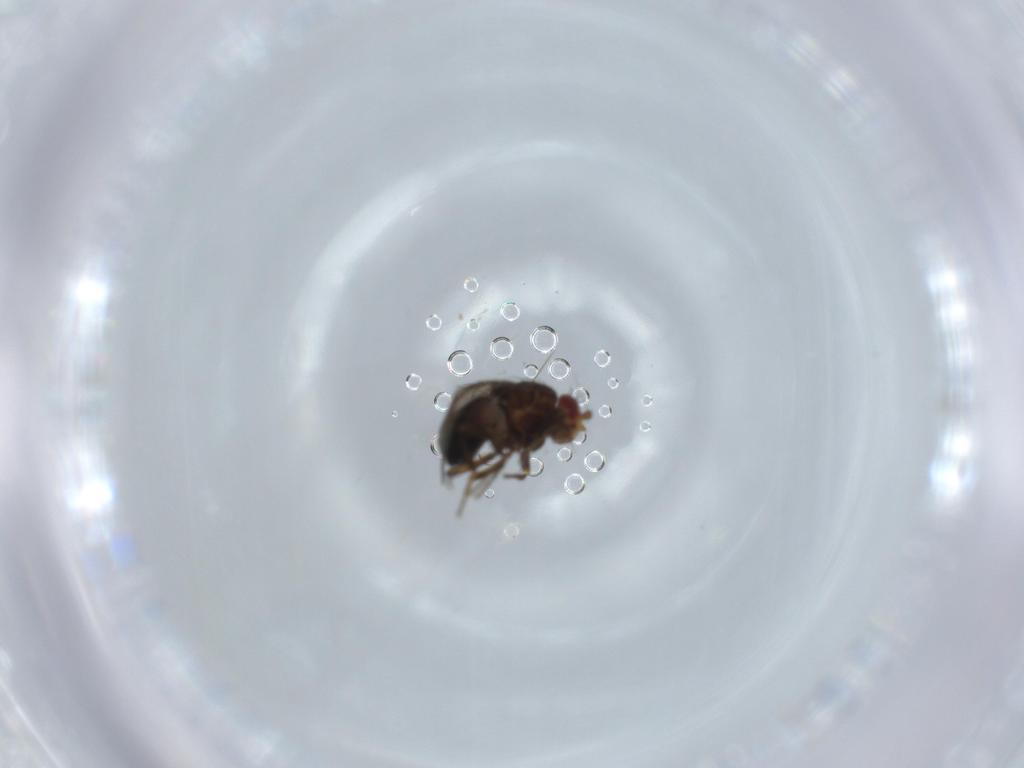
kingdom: Animalia
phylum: Arthropoda
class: Insecta
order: Diptera
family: Sphaeroceridae
